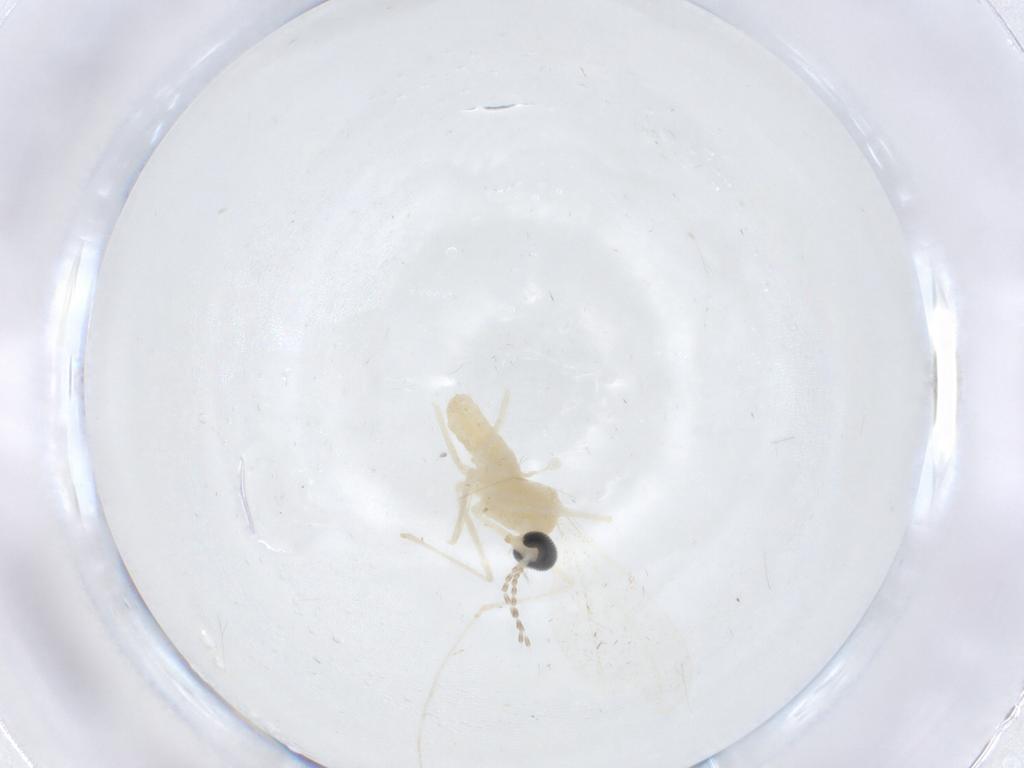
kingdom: Animalia
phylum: Arthropoda
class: Insecta
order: Diptera
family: Cecidomyiidae
